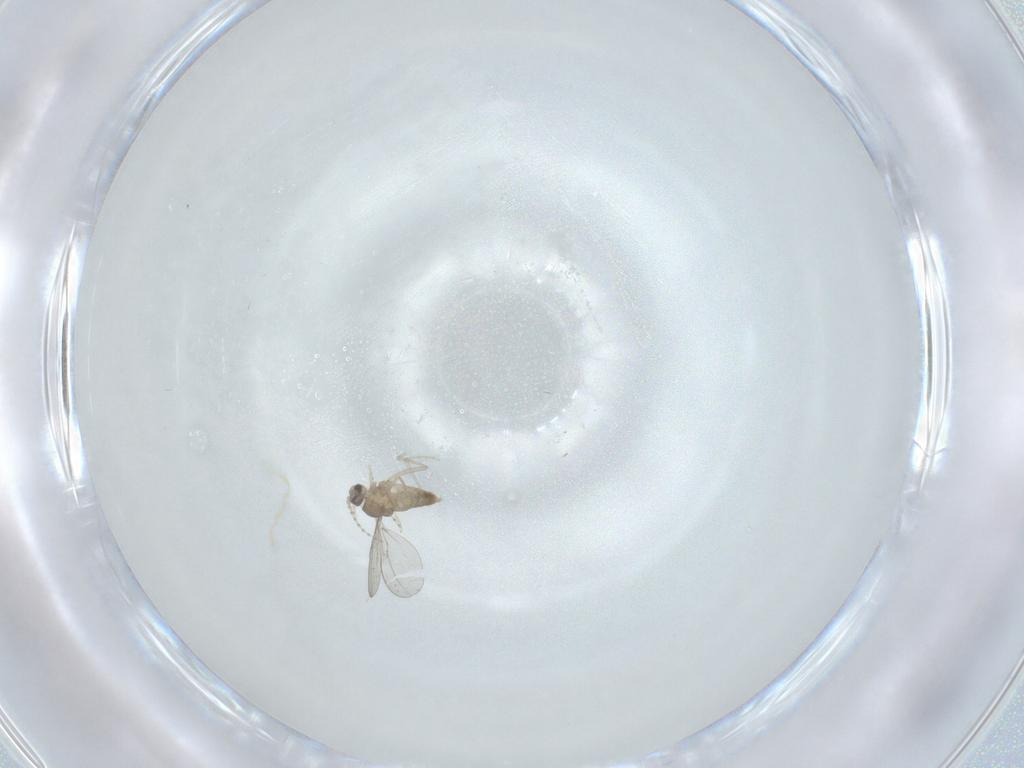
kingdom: Animalia
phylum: Arthropoda
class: Insecta
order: Diptera
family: Cecidomyiidae
